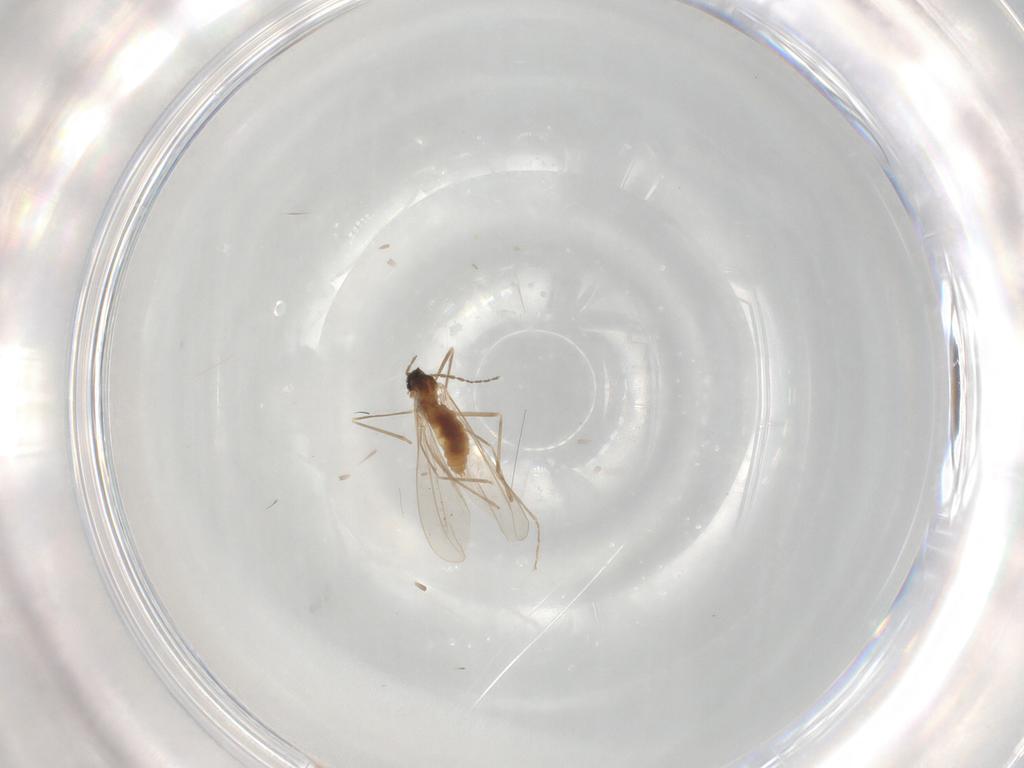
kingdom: Animalia
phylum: Arthropoda
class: Insecta
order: Diptera
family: Cecidomyiidae
